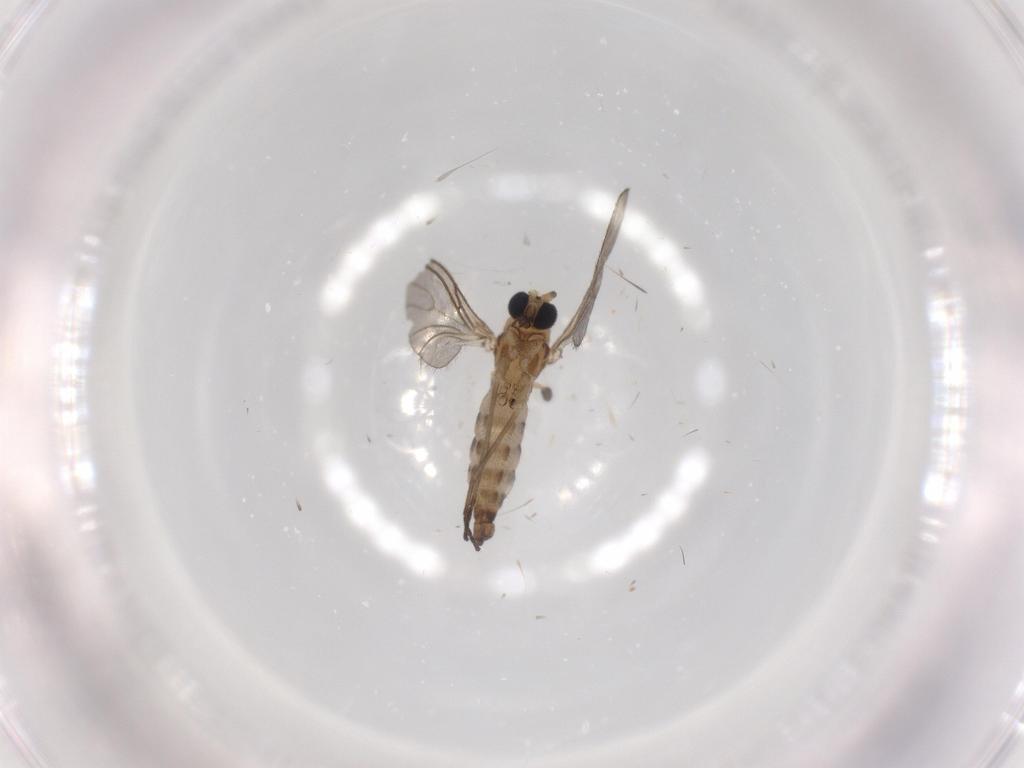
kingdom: Animalia
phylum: Arthropoda
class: Insecta
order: Diptera
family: Sciaridae
